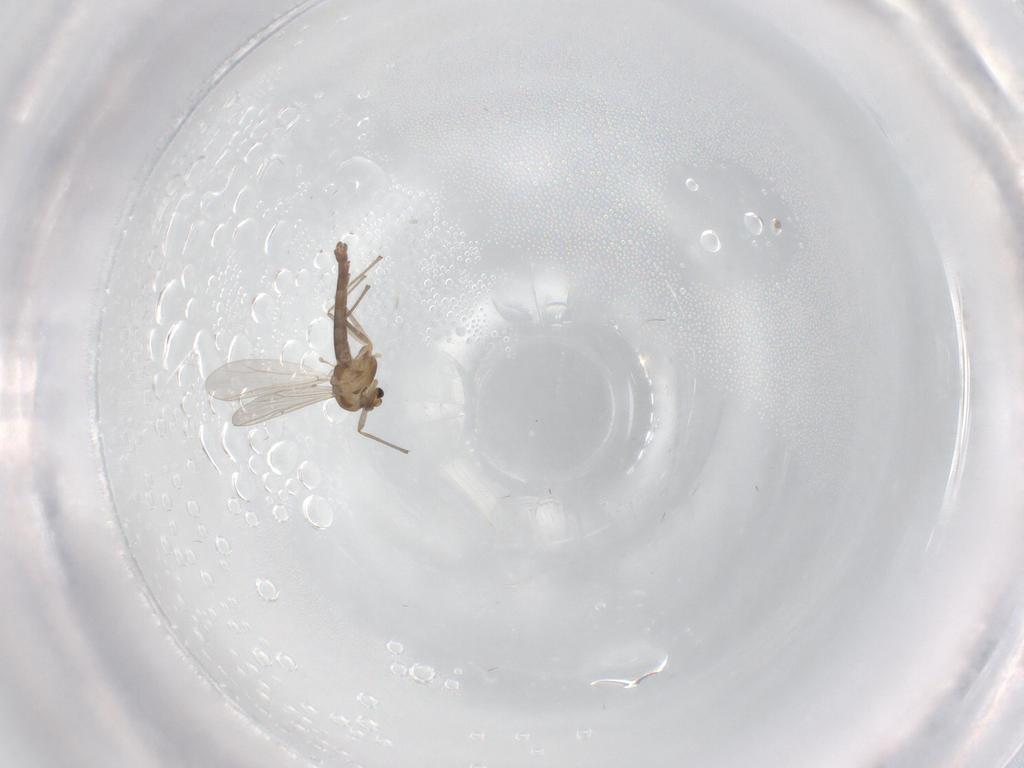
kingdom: Animalia
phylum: Arthropoda
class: Insecta
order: Diptera
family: Chironomidae
